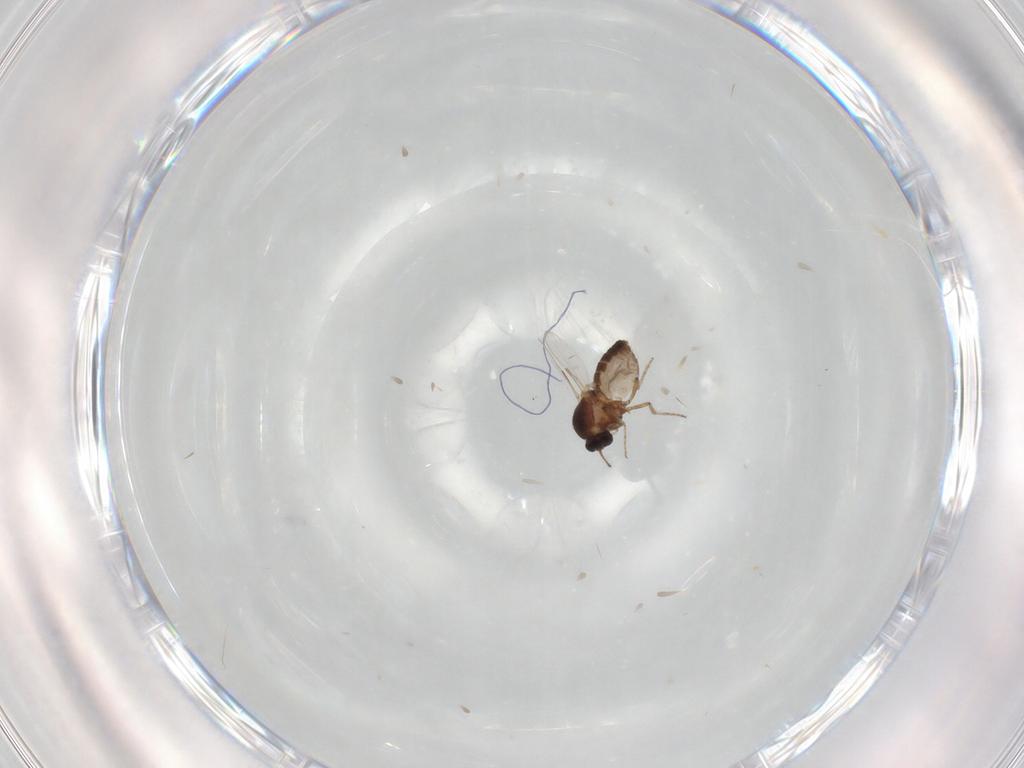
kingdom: Animalia
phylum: Arthropoda
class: Insecta
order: Diptera
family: Ceratopogonidae
